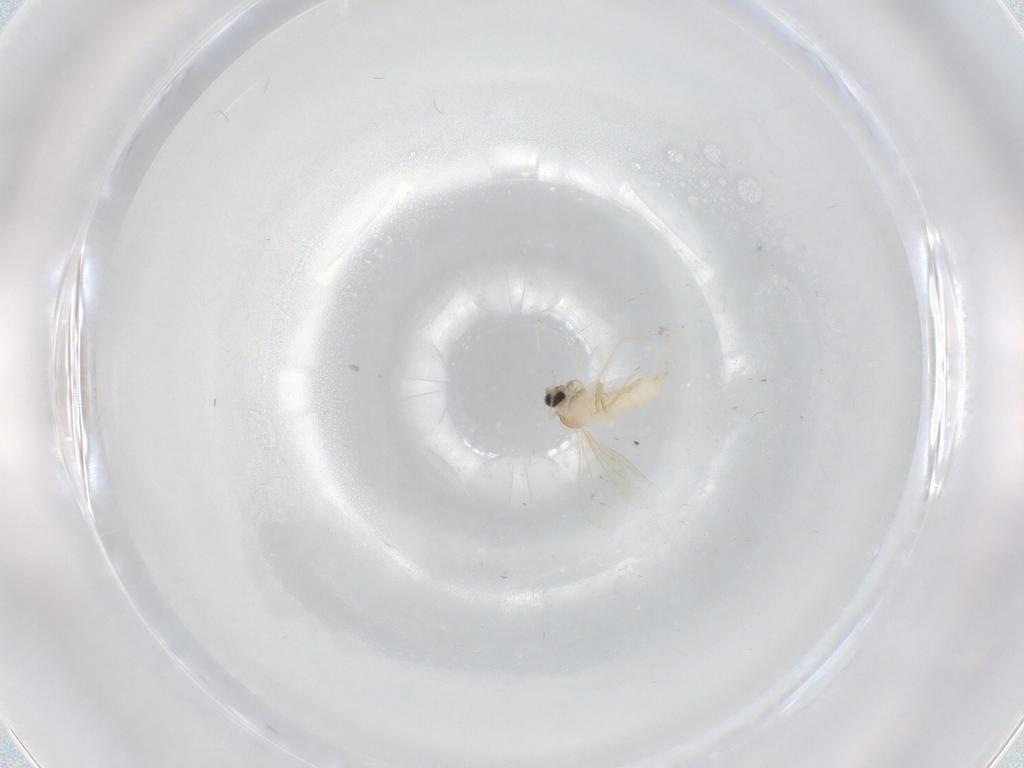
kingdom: Animalia
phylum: Arthropoda
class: Insecta
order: Diptera
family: Cecidomyiidae
